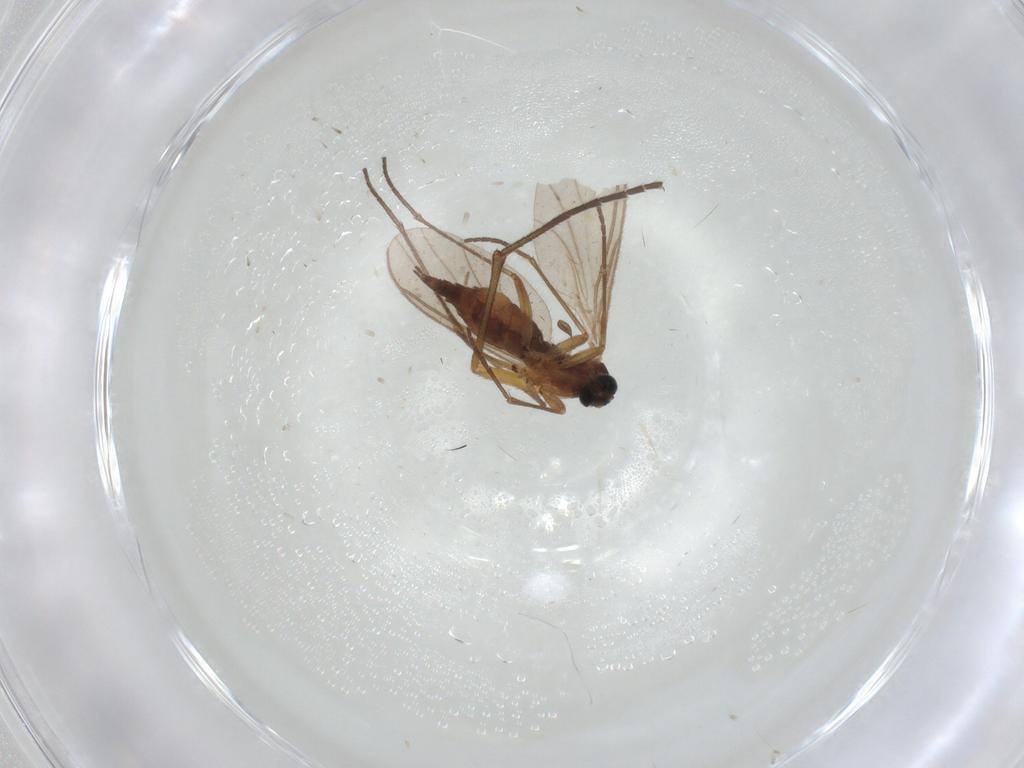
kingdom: Animalia
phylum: Arthropoda
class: Insecta
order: Diptera
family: Sciaridae
